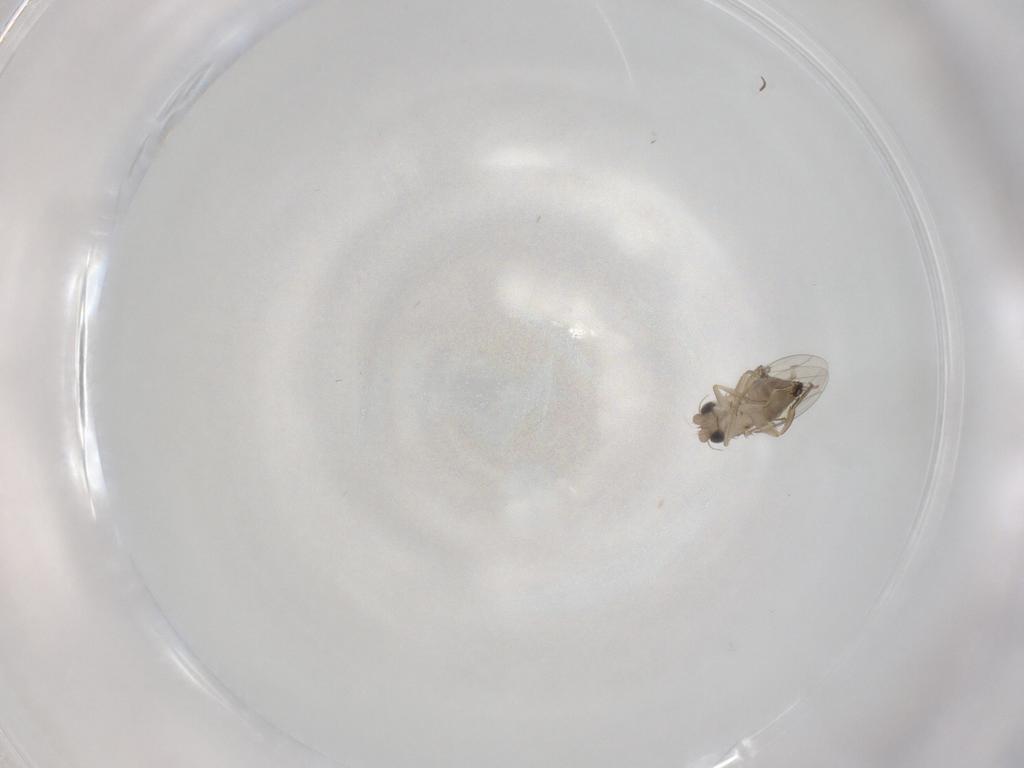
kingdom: Animalia
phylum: Arthropoda
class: Insecta
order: Diptera
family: Phoridae
